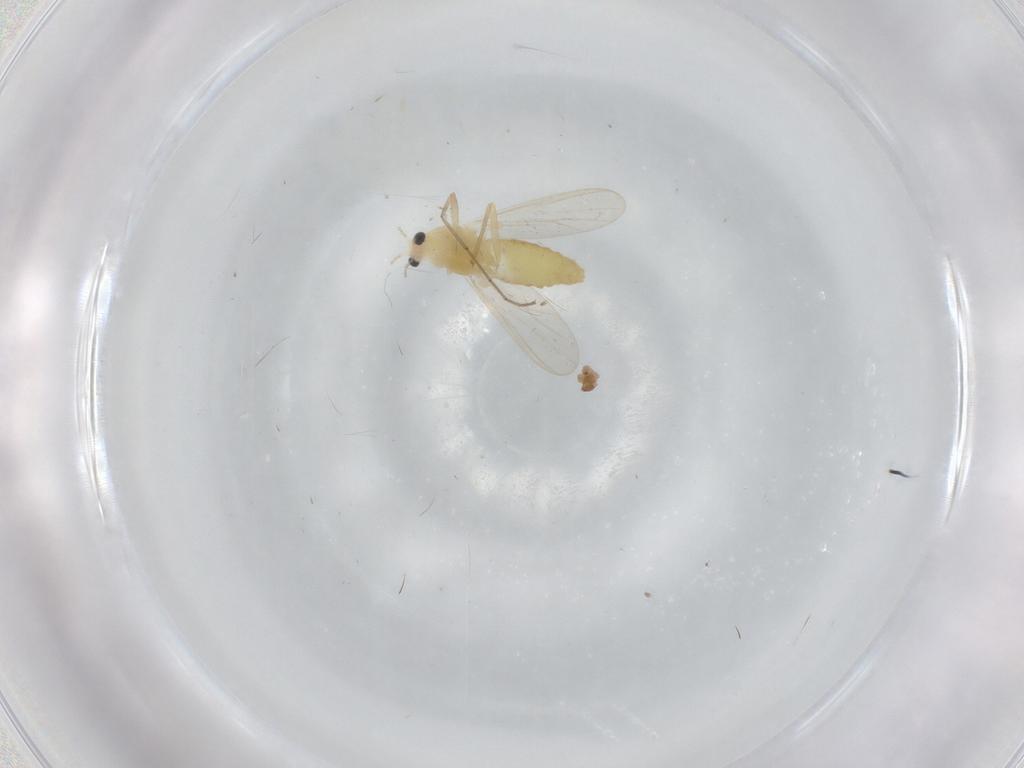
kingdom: Animalia
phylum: Arthropoda
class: Insecta
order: Diptera
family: Chironomidae
